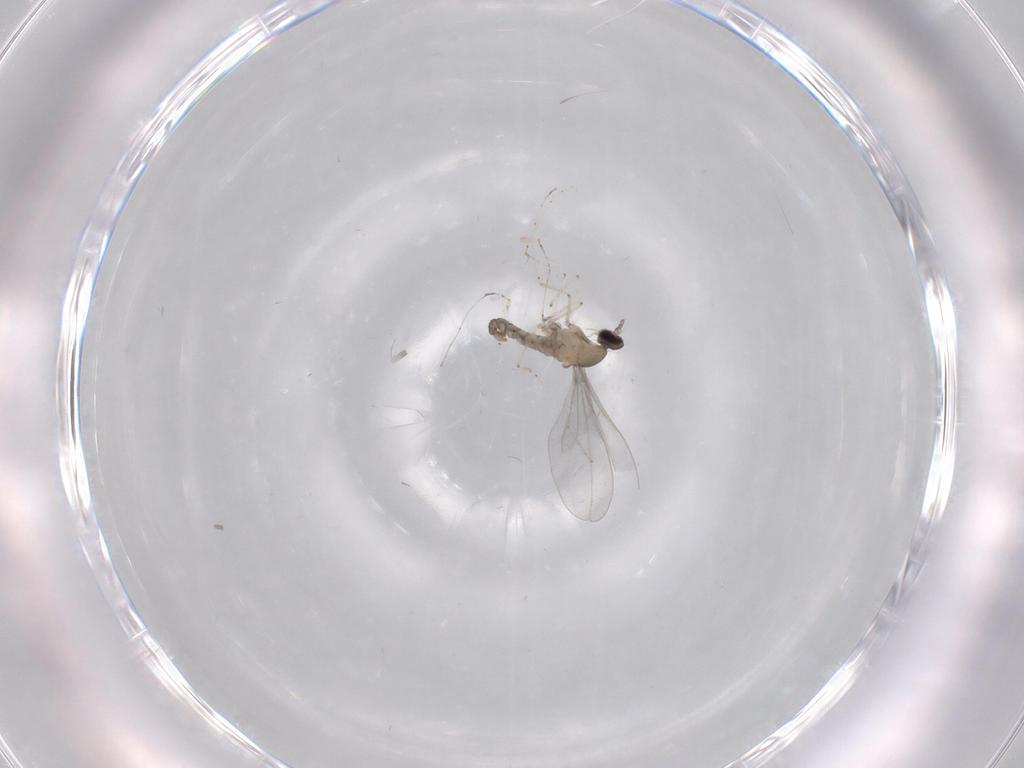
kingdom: Animalia
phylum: Arthropoda
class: Insecta
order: Diptera
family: Cecidomyiidae
